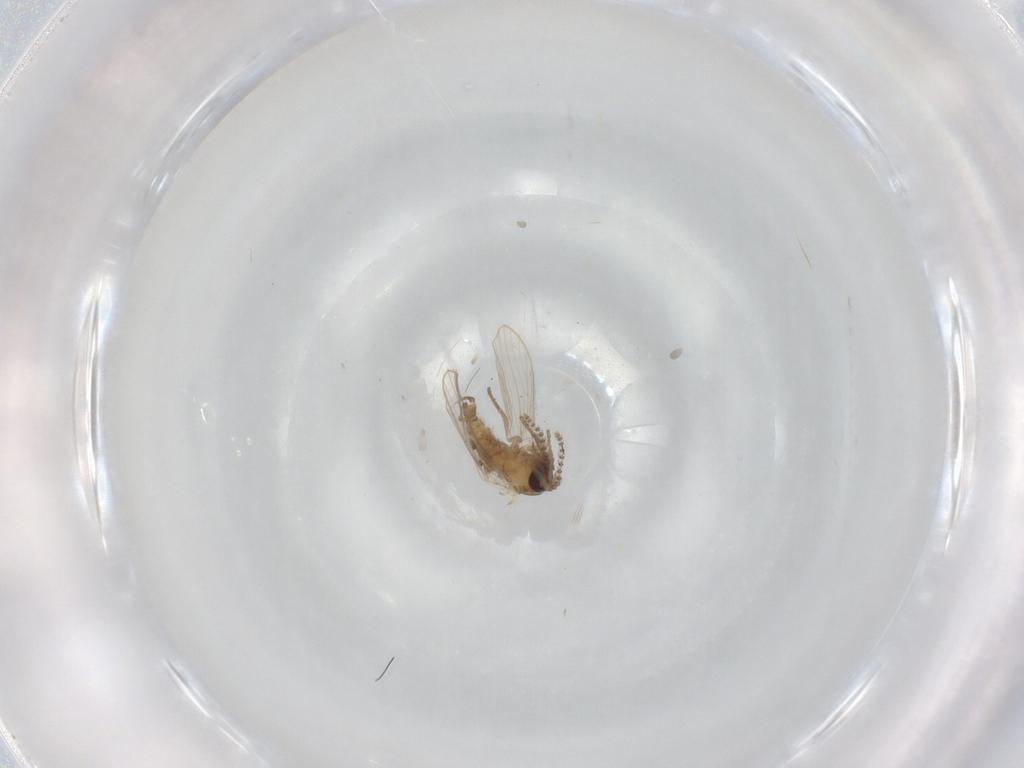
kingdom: Animalia
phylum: Arthropoda
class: Insecta
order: Diptera
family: Psychodidae
